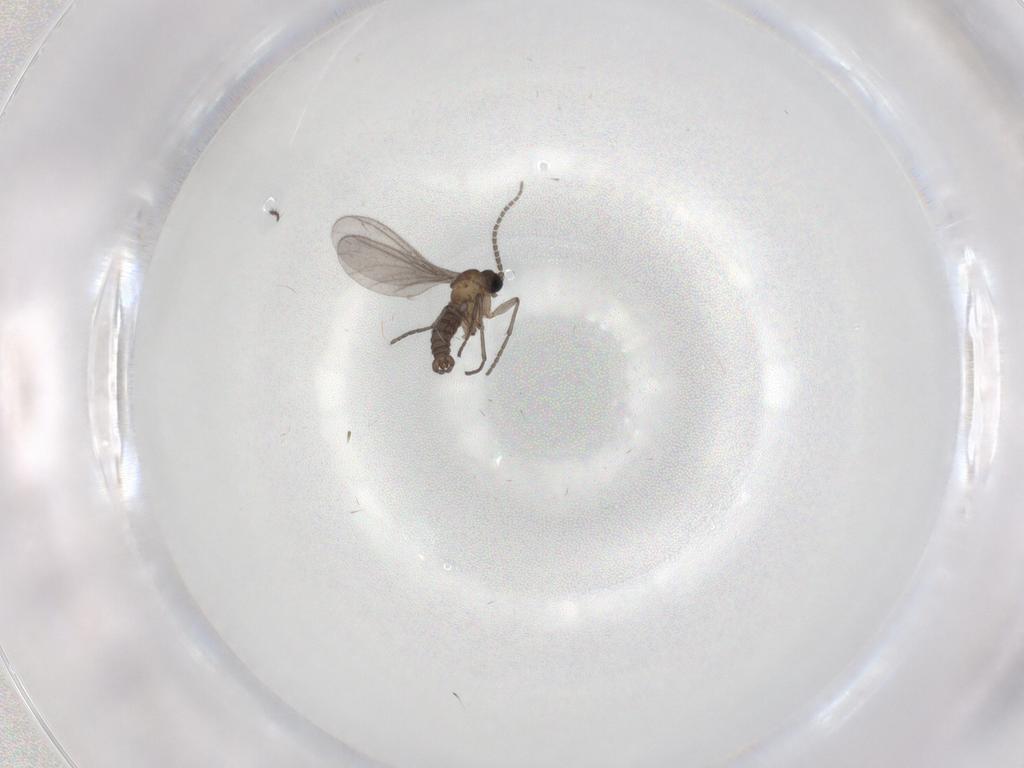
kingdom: Animalia
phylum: Arthropoda
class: Insecta
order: Diptera
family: Sciaridae
